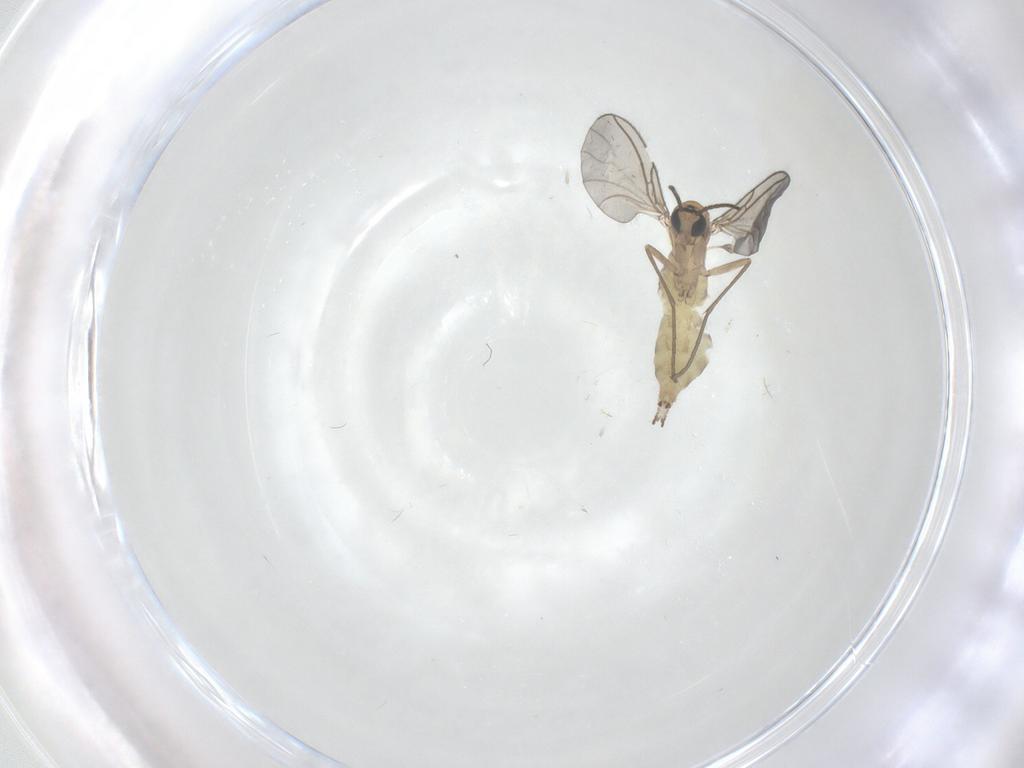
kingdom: Animalia
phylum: Arthropoda
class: Insecta
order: Diptera
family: Sciaridae
